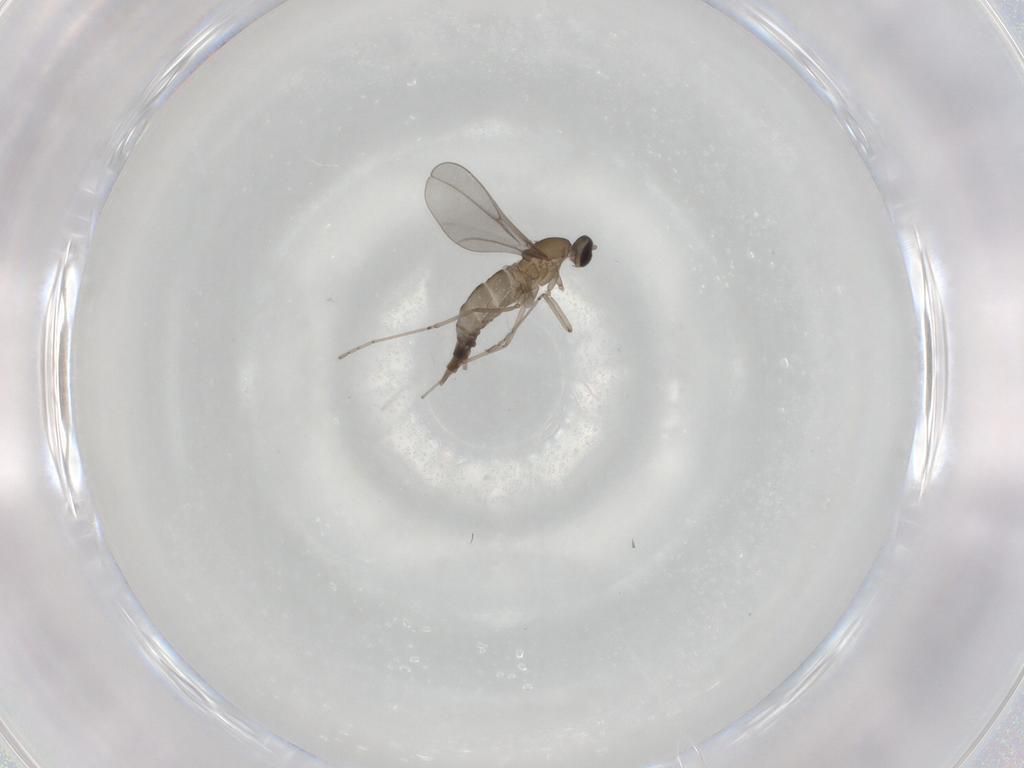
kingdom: Animalia
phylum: Arthropoda
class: Insecta
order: Diptera
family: Cecidomyiidae
